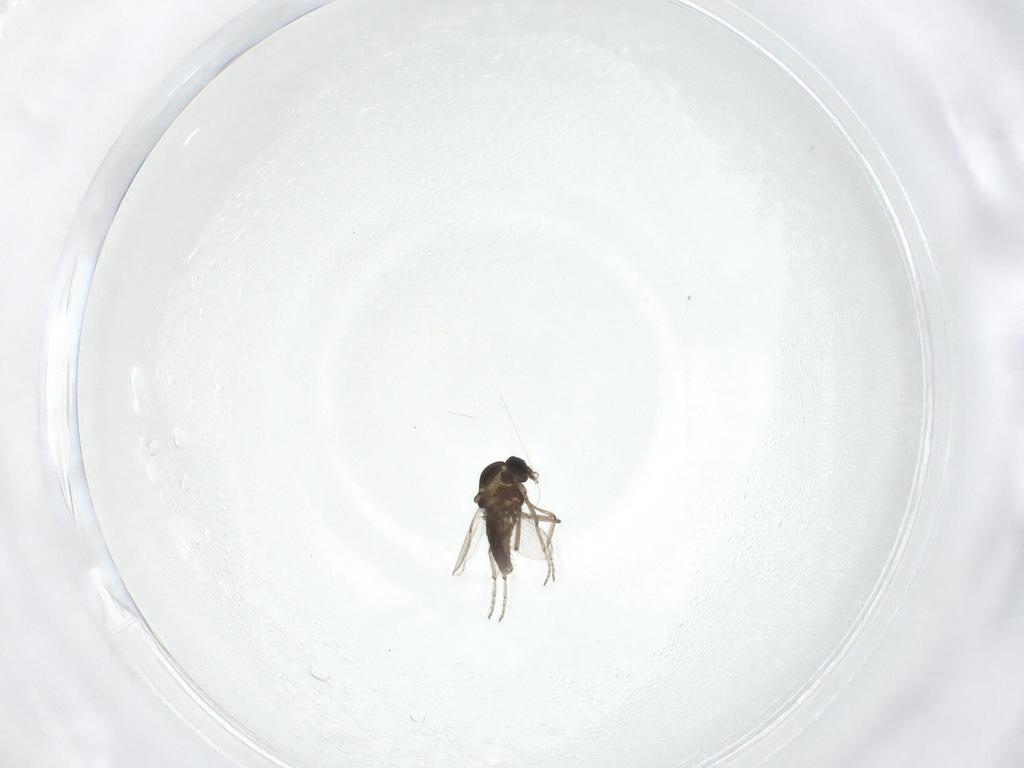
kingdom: Animalia
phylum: Arthropoda
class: Insecta
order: Diptera
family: Ceratopogonidae
